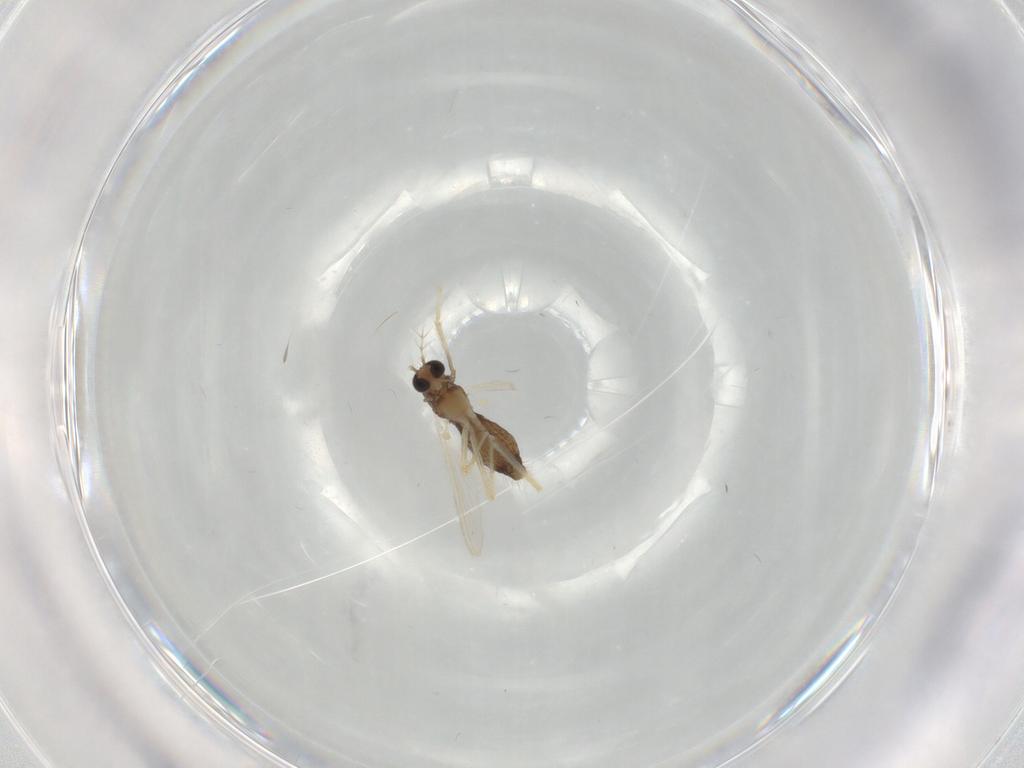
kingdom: Animalia
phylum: Arthropoda
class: Insecta
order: Diptera
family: Chironomidae
